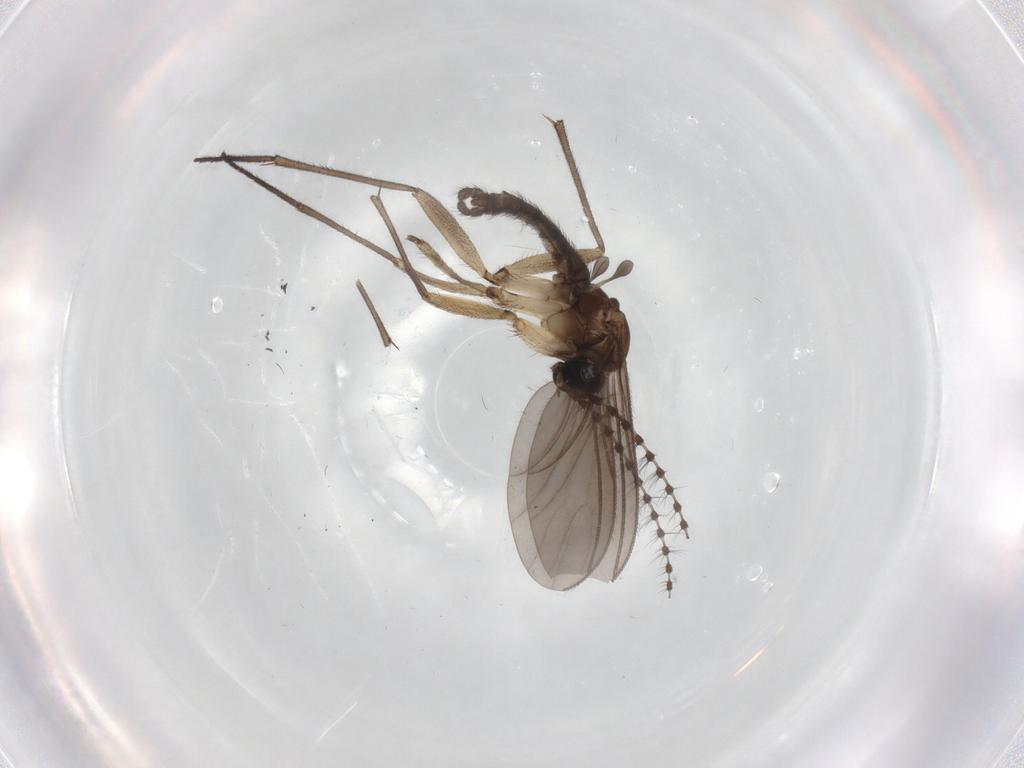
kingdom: Animalia
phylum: Arthropoda
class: Insecta
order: Diptera
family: Sciaridae
